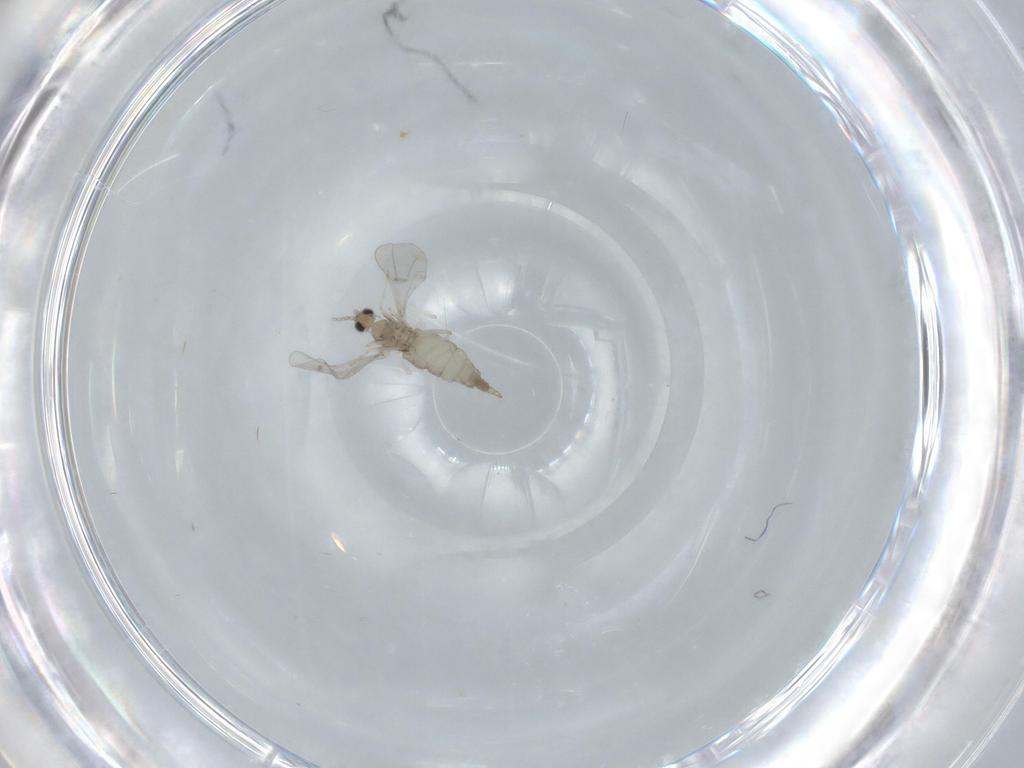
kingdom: Animalia
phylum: Arthropoda
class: Insecta
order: Diptera
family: Cecidomyiidae
